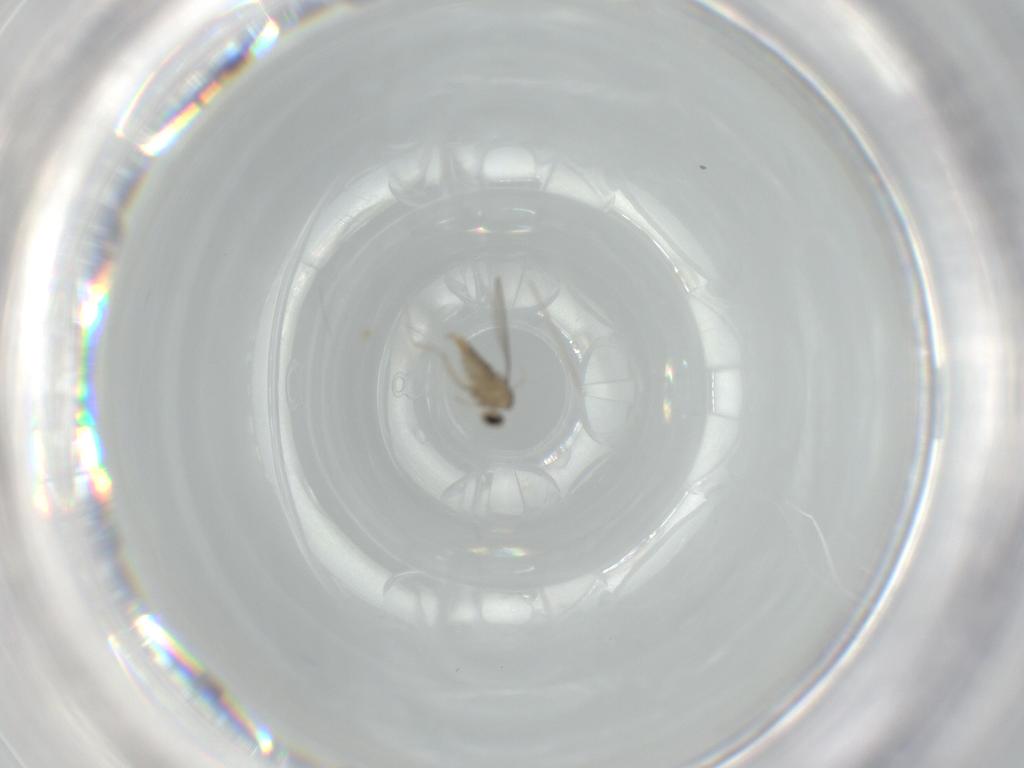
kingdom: Animalia
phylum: Arthropoda
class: Insecta
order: Diptera
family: Cecidomyiidae
